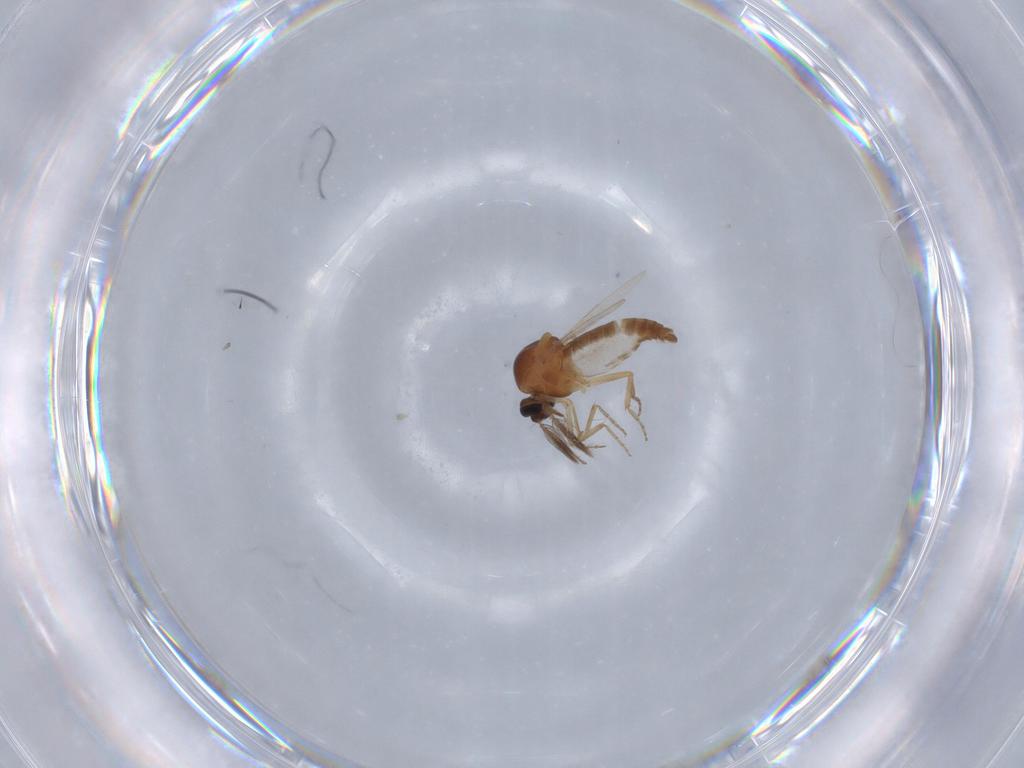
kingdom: Animalia
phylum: Arthropoda
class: Insecta
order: Diptera
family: Ceratopogonidae
